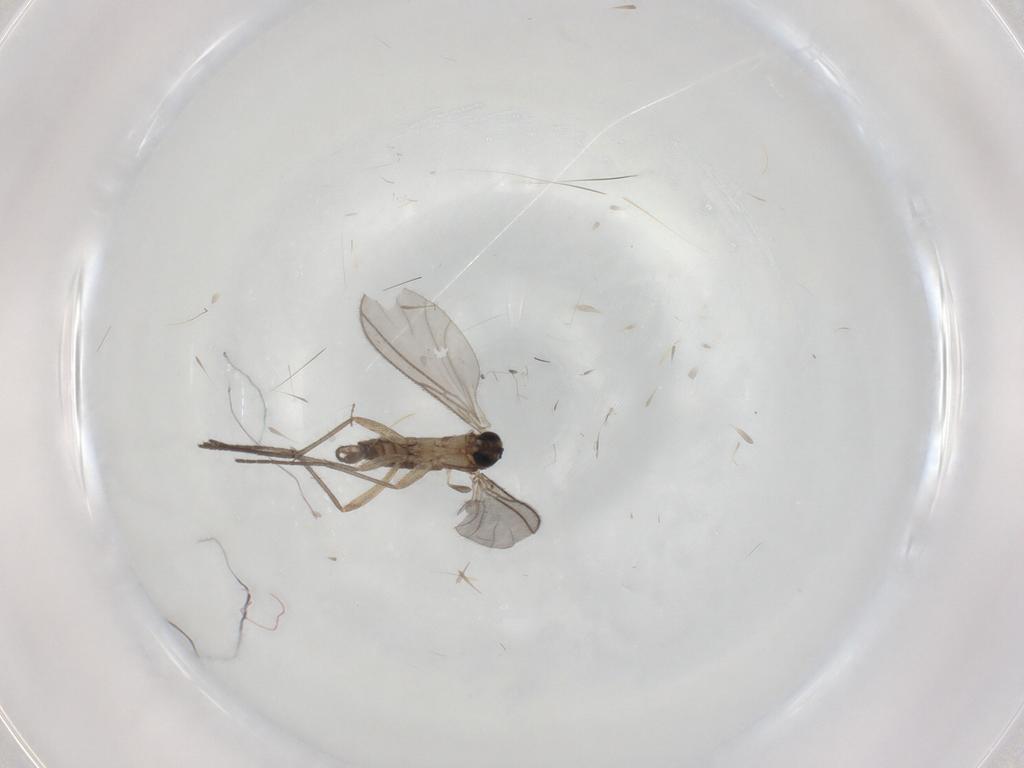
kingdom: Animalia
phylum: Arthropoda
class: Insecta
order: Diptera
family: Sciaridae
